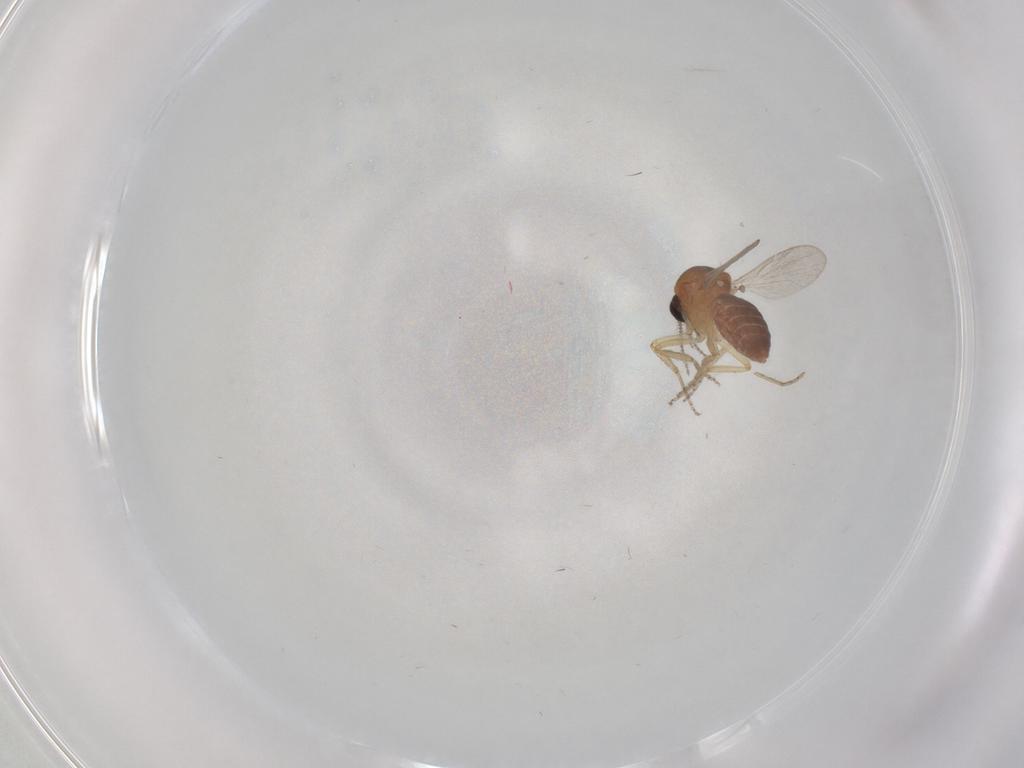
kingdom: Animalia
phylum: Arthropoda
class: Insecta
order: Diptera
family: Ceratopogonidae
